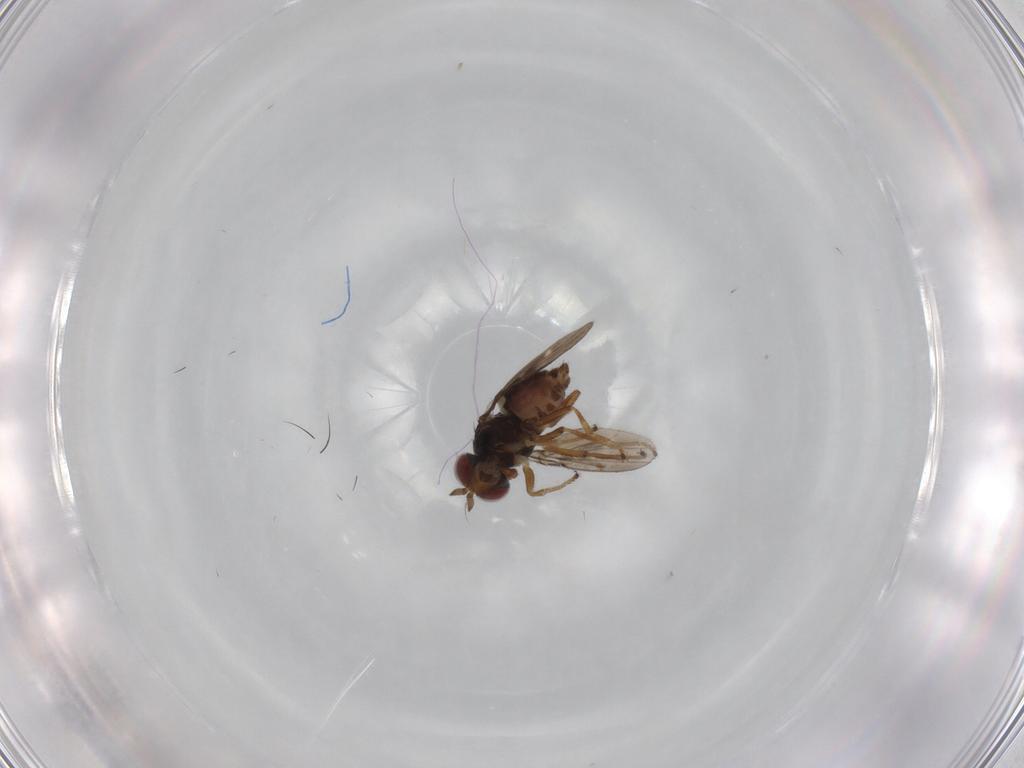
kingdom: Animalia
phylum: Arthropoda
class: Insecta
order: Diptera
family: Ephydridae
